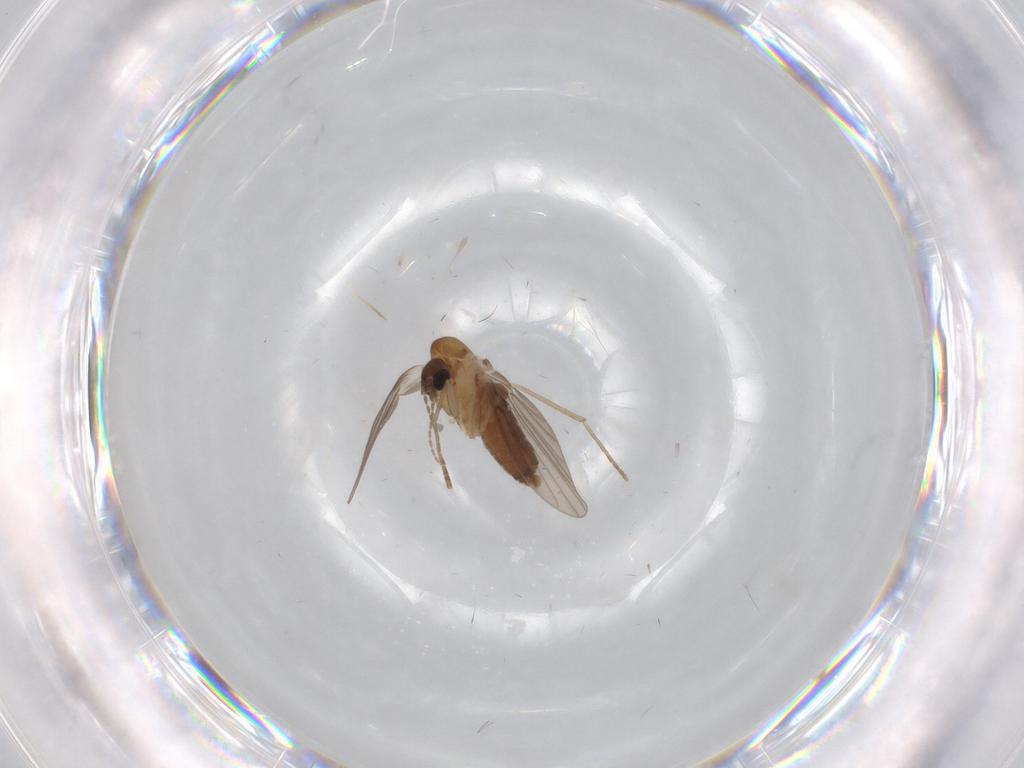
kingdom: Animalia
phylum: Arthropoda
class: Insecta
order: Diptera
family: Limoniidae
